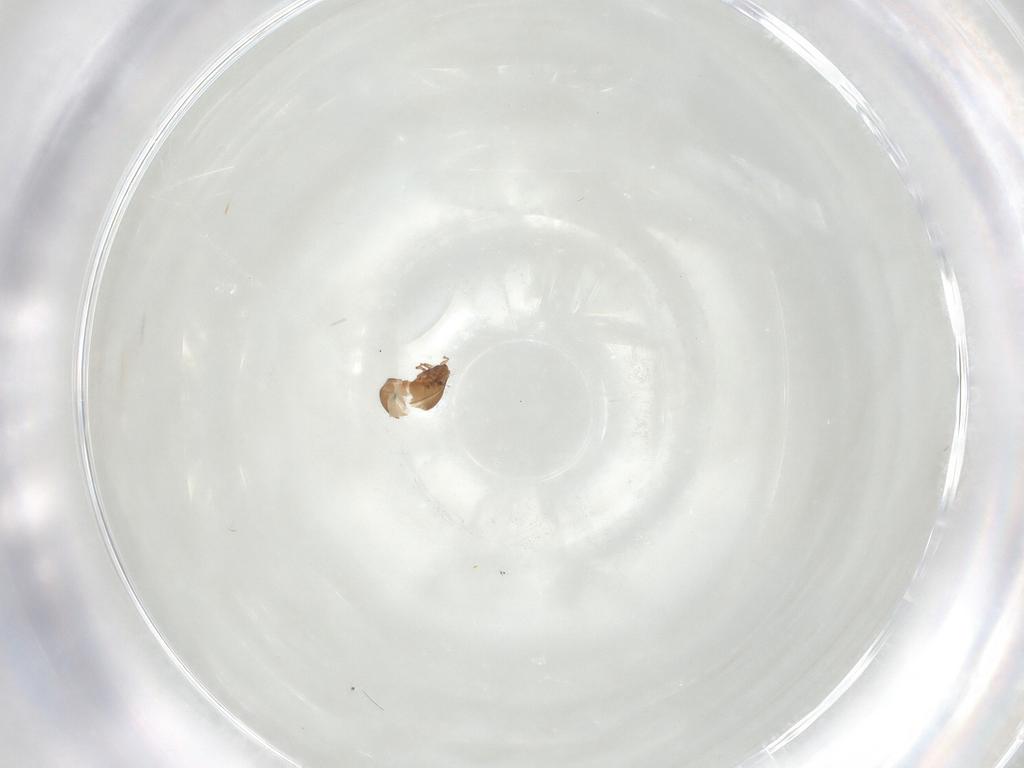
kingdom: Animalia
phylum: Arthropoda
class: Arachnida
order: Sarcoptiformes
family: Oribatulidae
